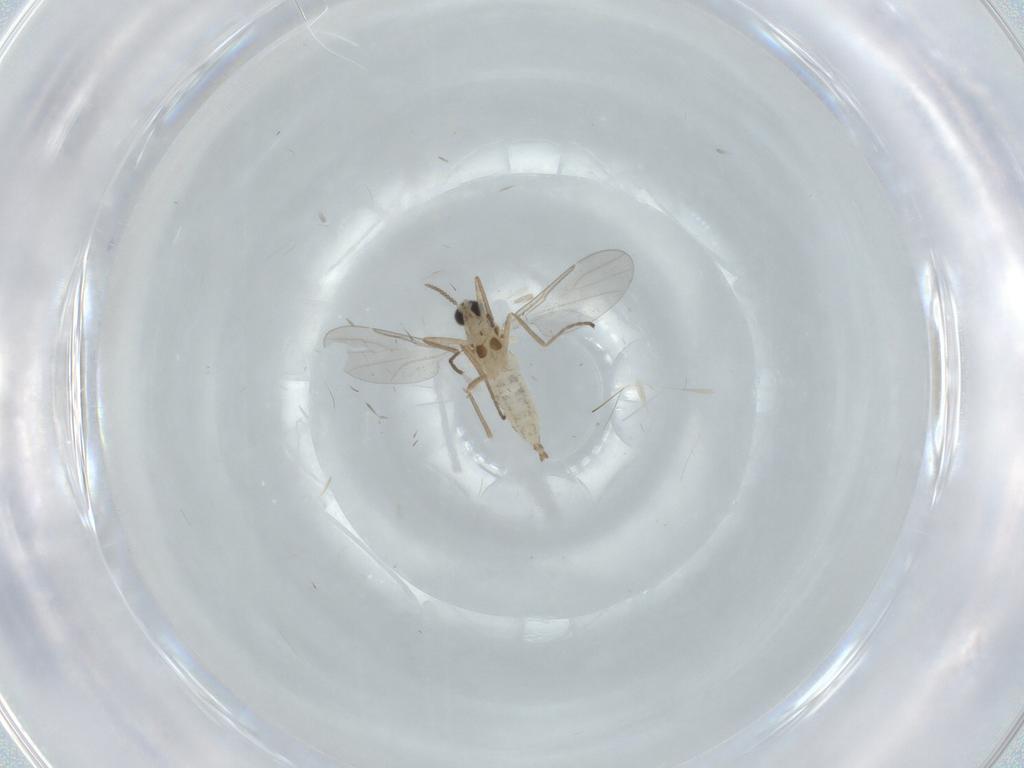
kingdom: Animalia
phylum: Arthropoda
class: Insecta
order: Diptera
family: Cecidomyiidae
